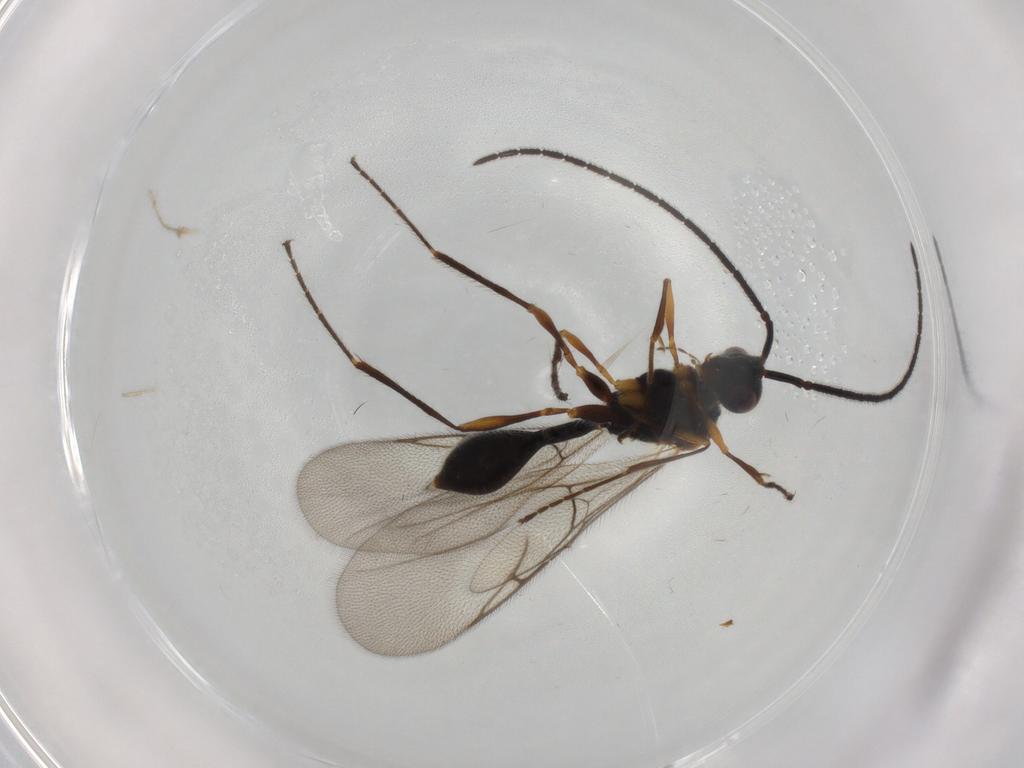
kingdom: Animalia
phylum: Arthropoda
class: Insecta
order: Hymenoptera
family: Diapriidae
